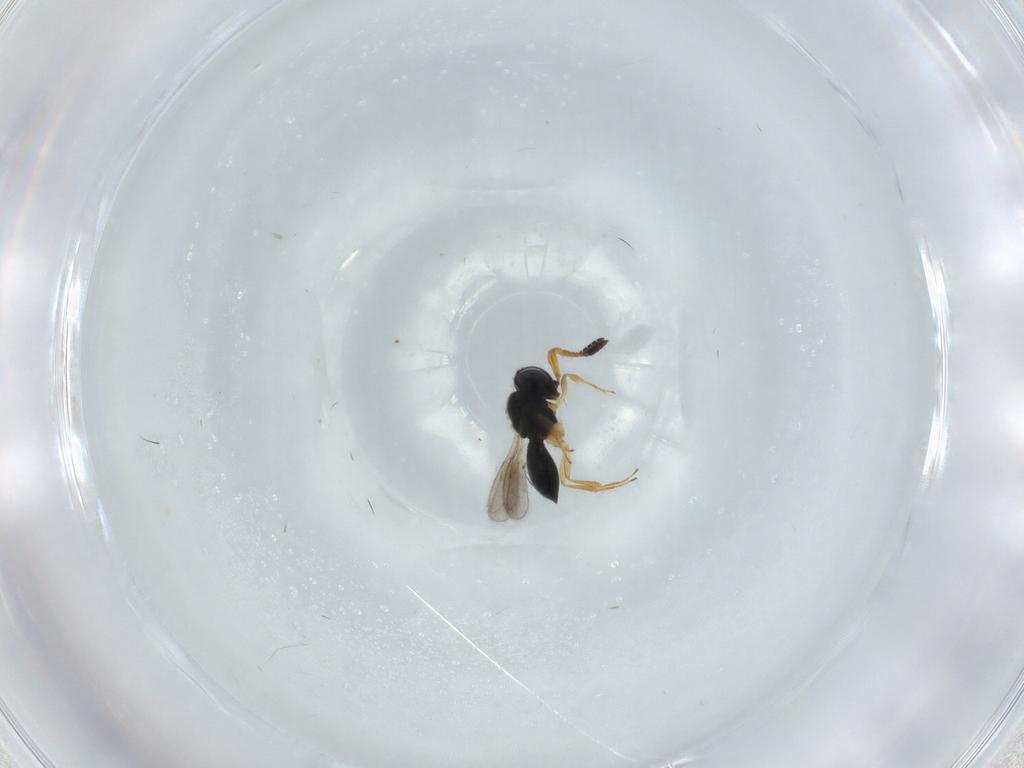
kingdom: Animalia
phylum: Arthropoda
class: Insecta
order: Hymenoptera
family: Scelionidae
